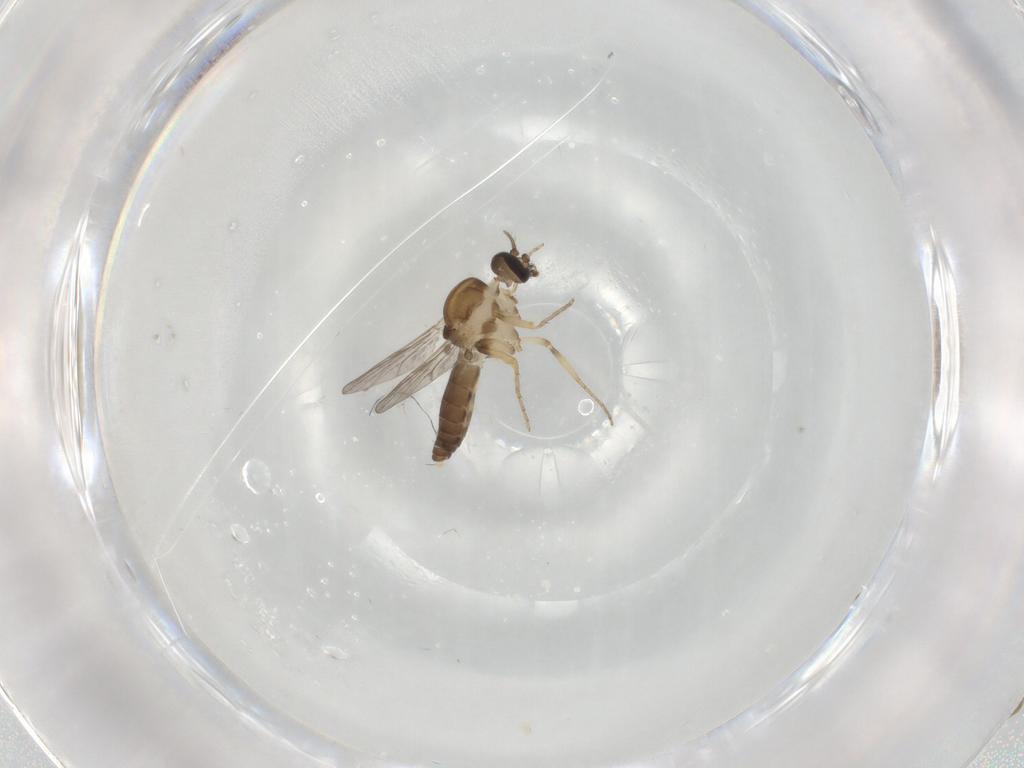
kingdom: Animalia
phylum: Arthropoda
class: Insecta
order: Diptera
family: Ceratopogonidae
